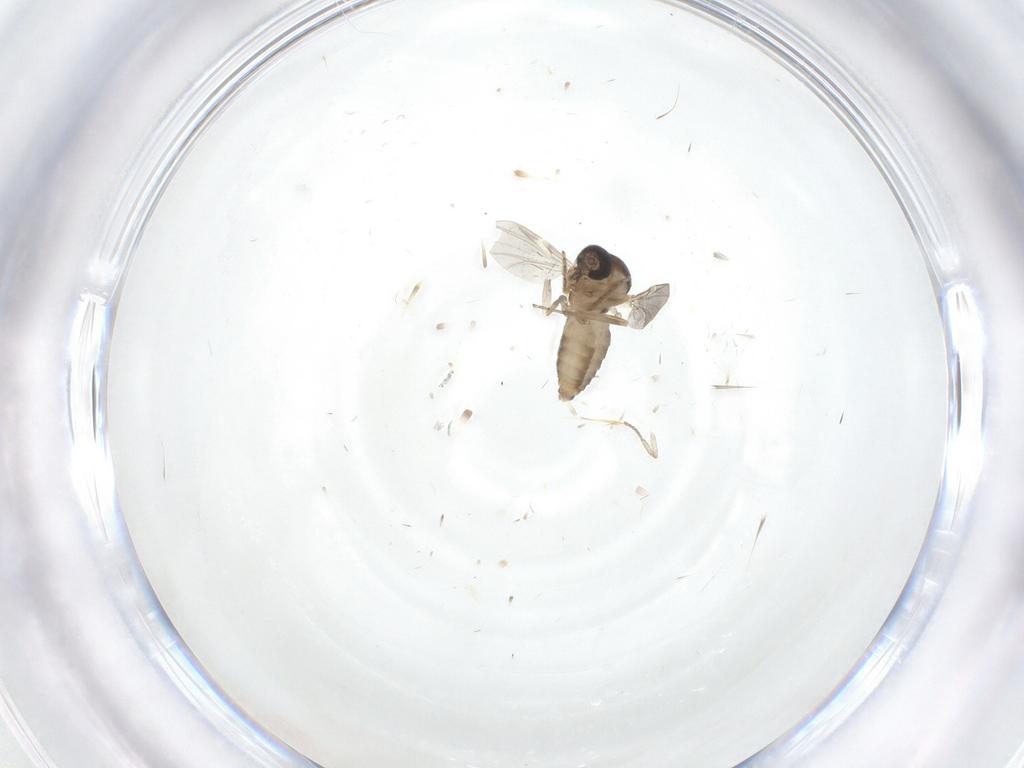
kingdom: Animalia
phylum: Arthropoda
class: Insecta
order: Diptera
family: Ceratopogonidae
